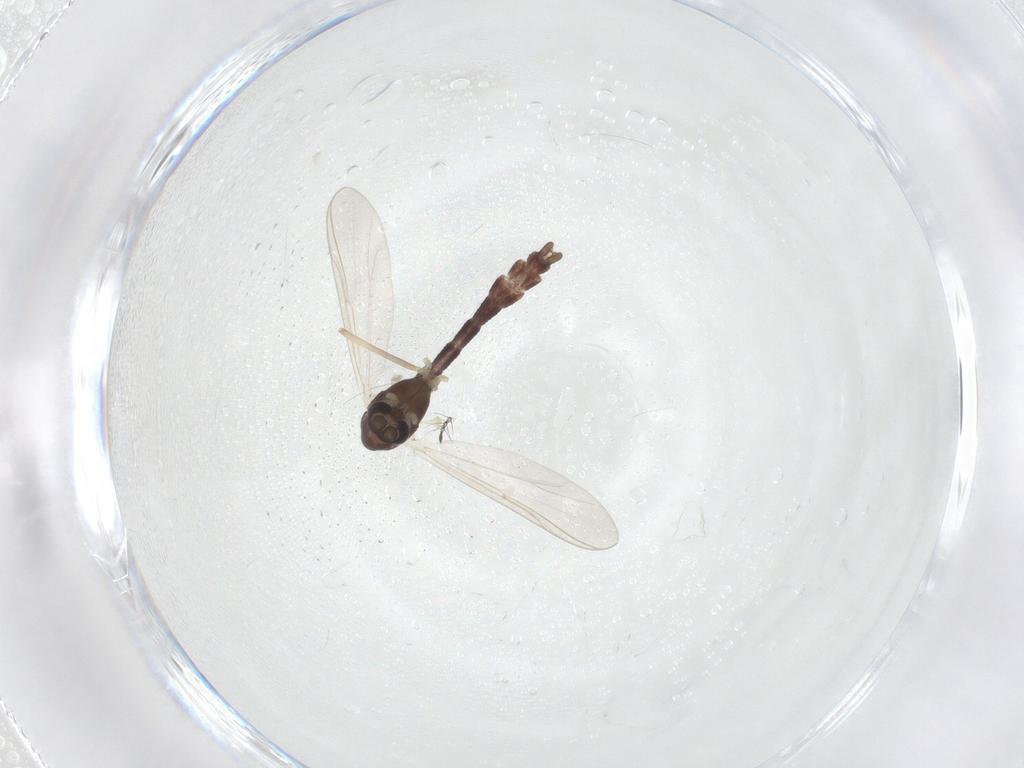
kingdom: Animalia
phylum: Arthropoda
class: Insecta
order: Diptera
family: Chironomidae
